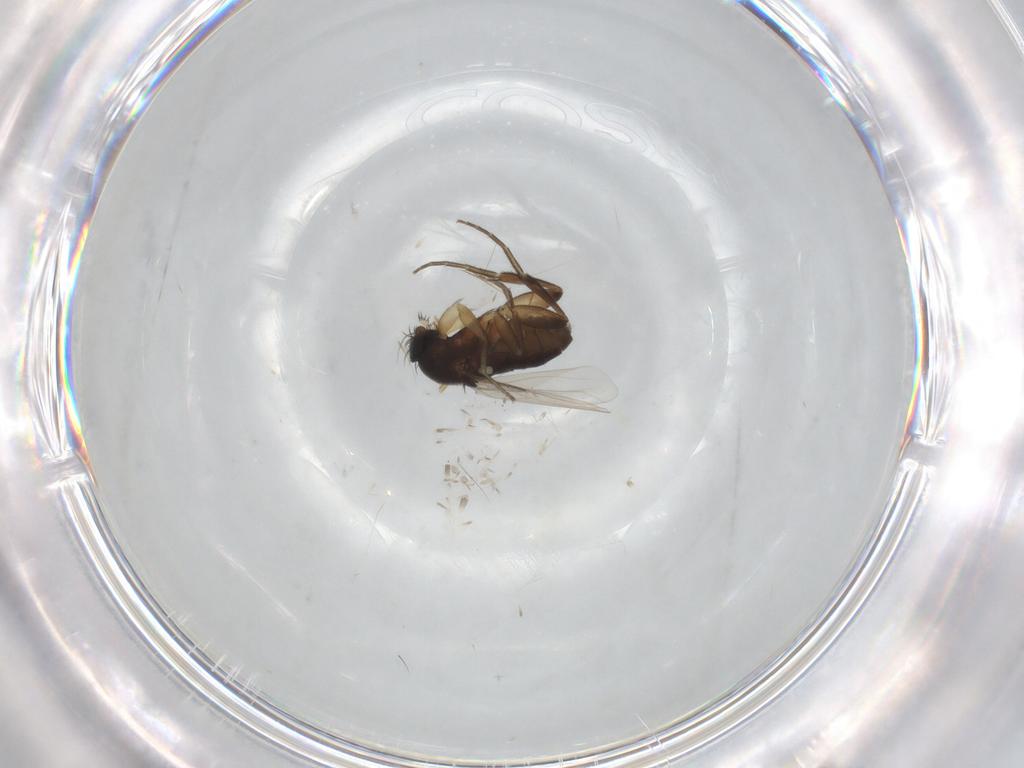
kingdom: Animalia
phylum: Arthropoda
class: Insecta
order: Diptera
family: Phoridae
